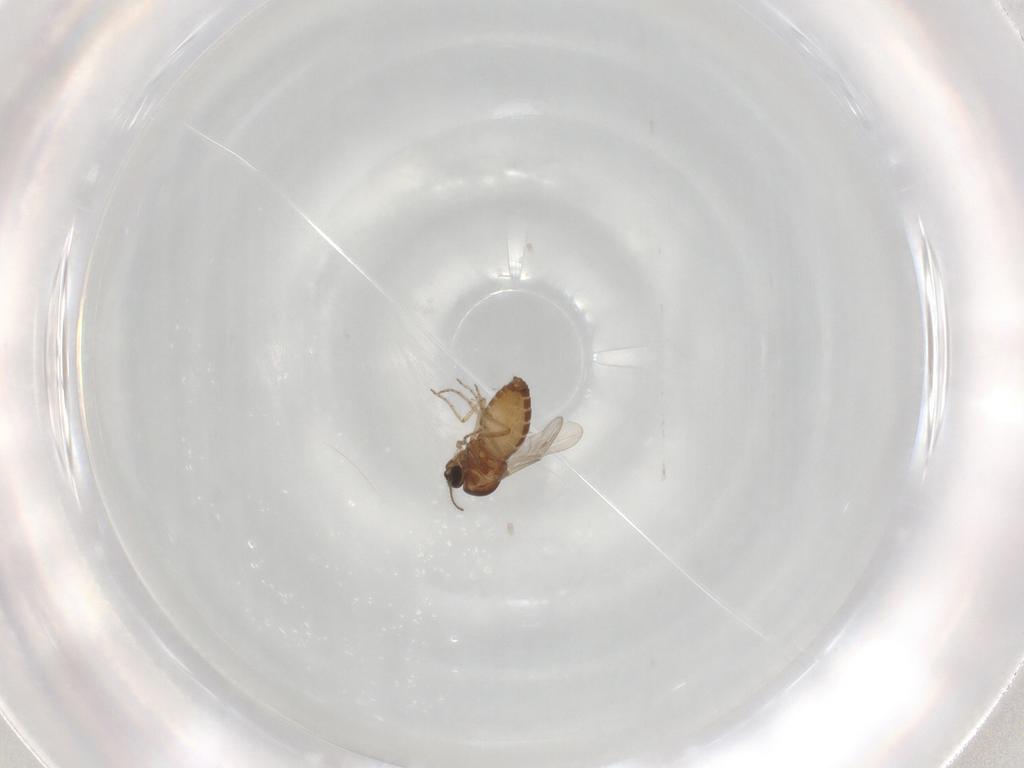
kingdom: Animalia
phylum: Arthropoda
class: Insecta
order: Diptera
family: Ceratopogonidae
